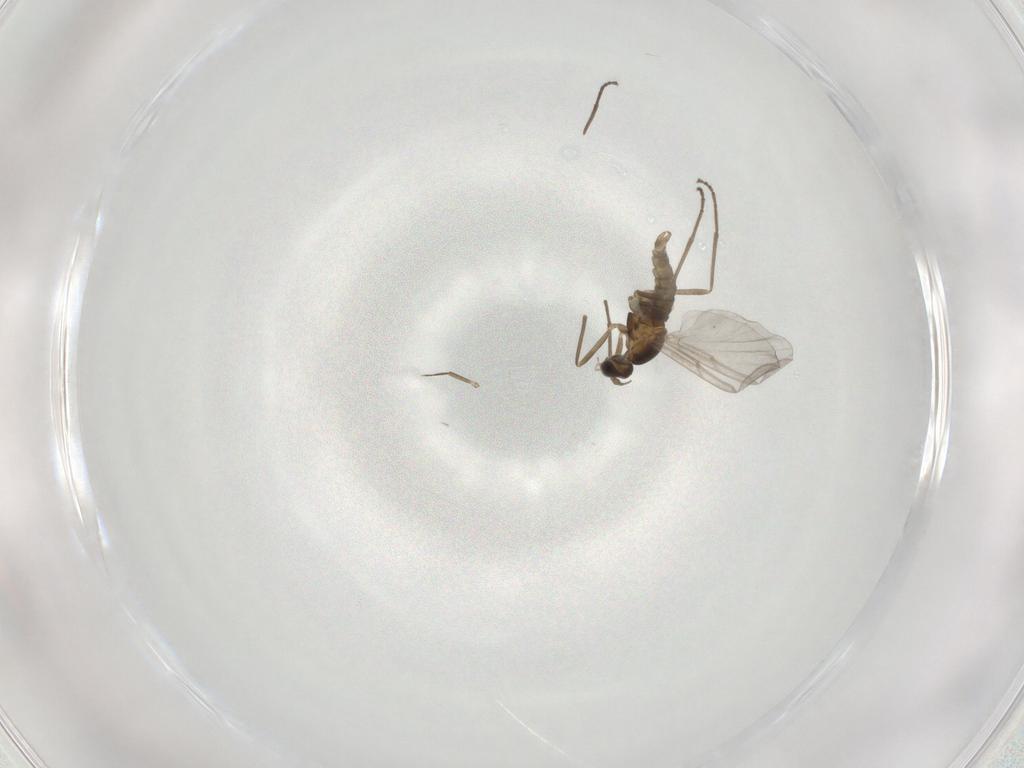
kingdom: Animalia
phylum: Arthropoda
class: Insecta
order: Diptera
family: Cecidomyiidae
